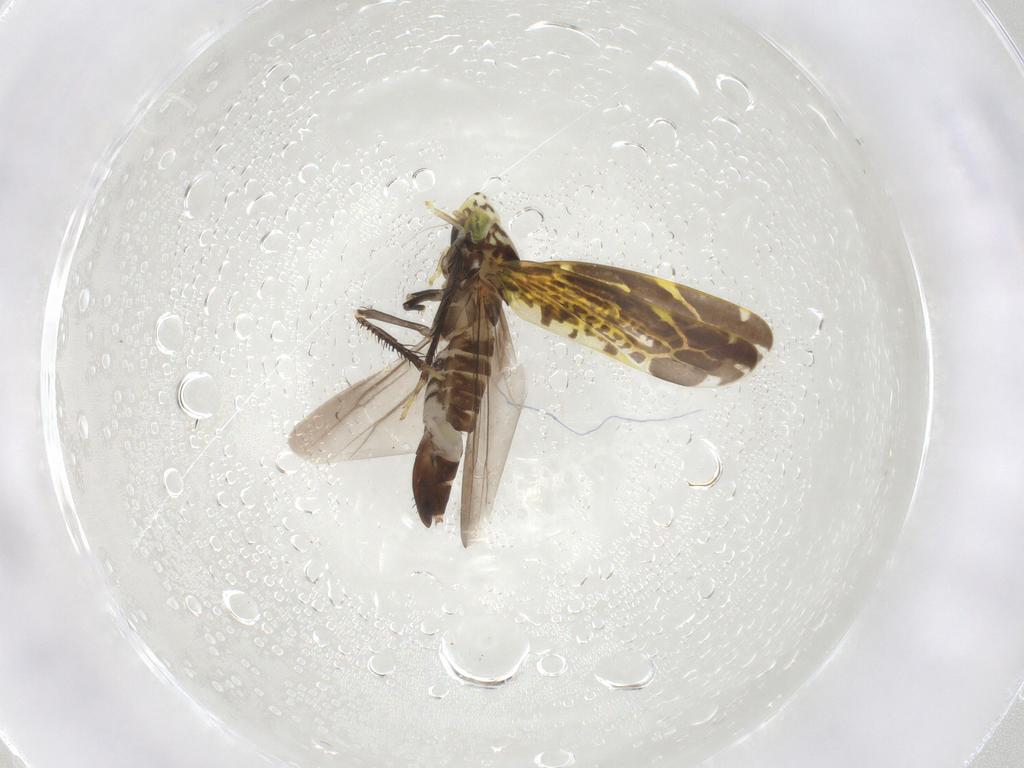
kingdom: Animalia
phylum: Arthropoda
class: Insecta
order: Hemiptera
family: Cicadellidae
